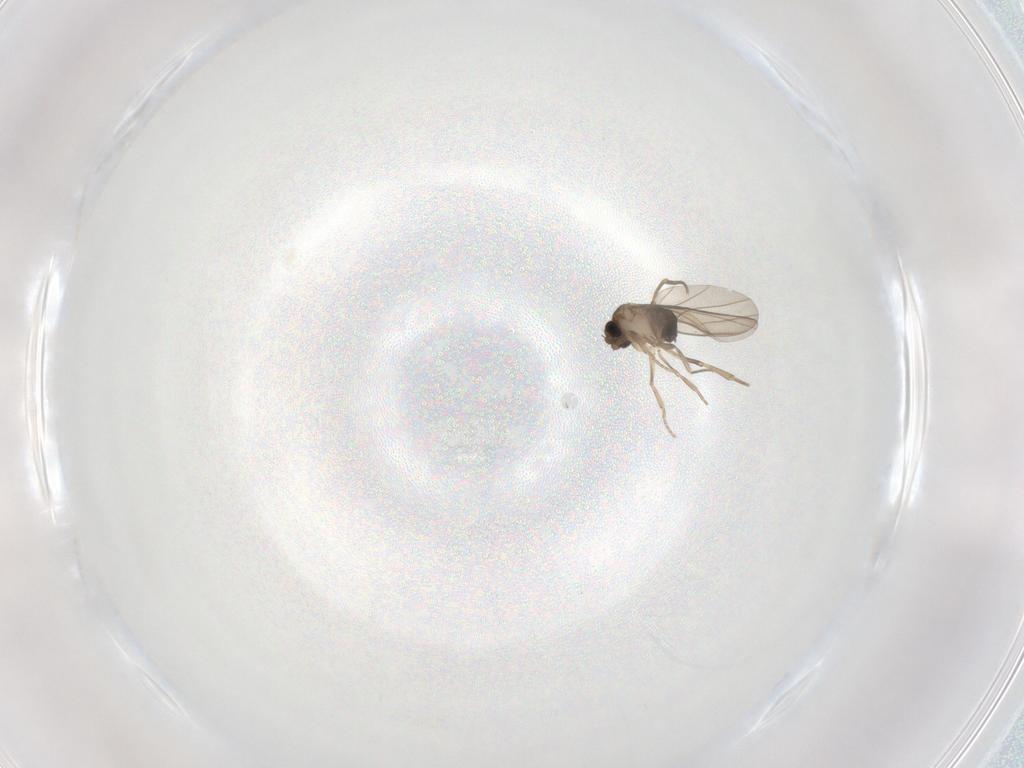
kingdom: Animalia
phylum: Arthropoda
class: Insecta
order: Diptera
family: Phoridae
